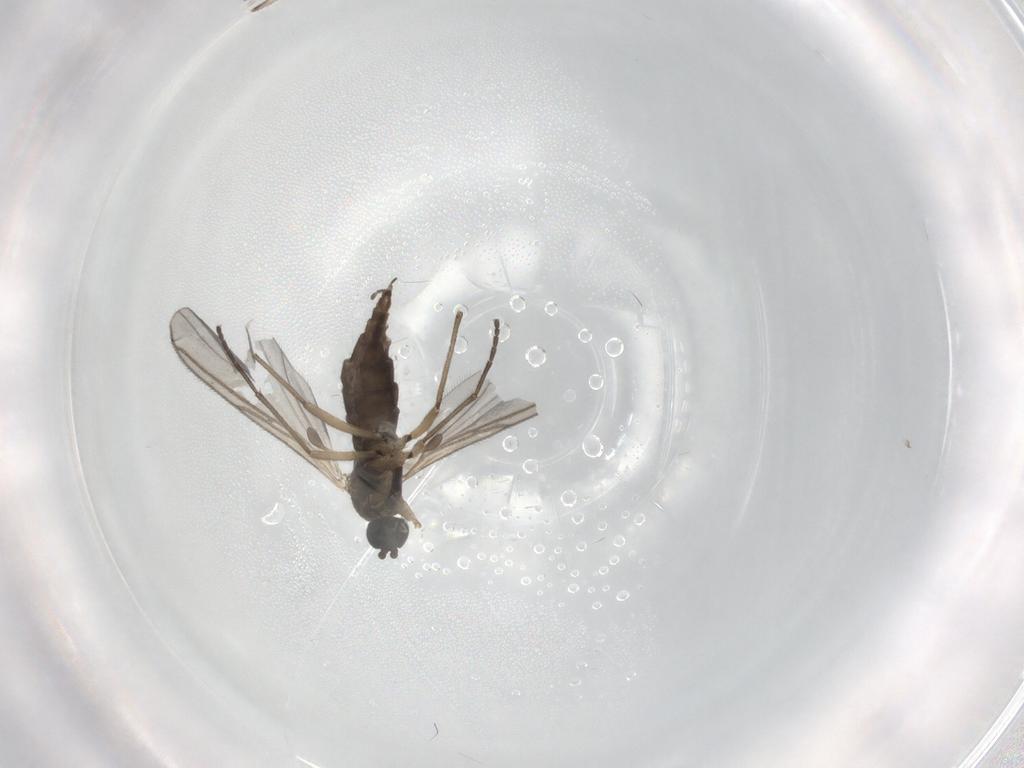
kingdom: Animalia
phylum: Arthropoda
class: Insecta
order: Diptera
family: Sciaridae
